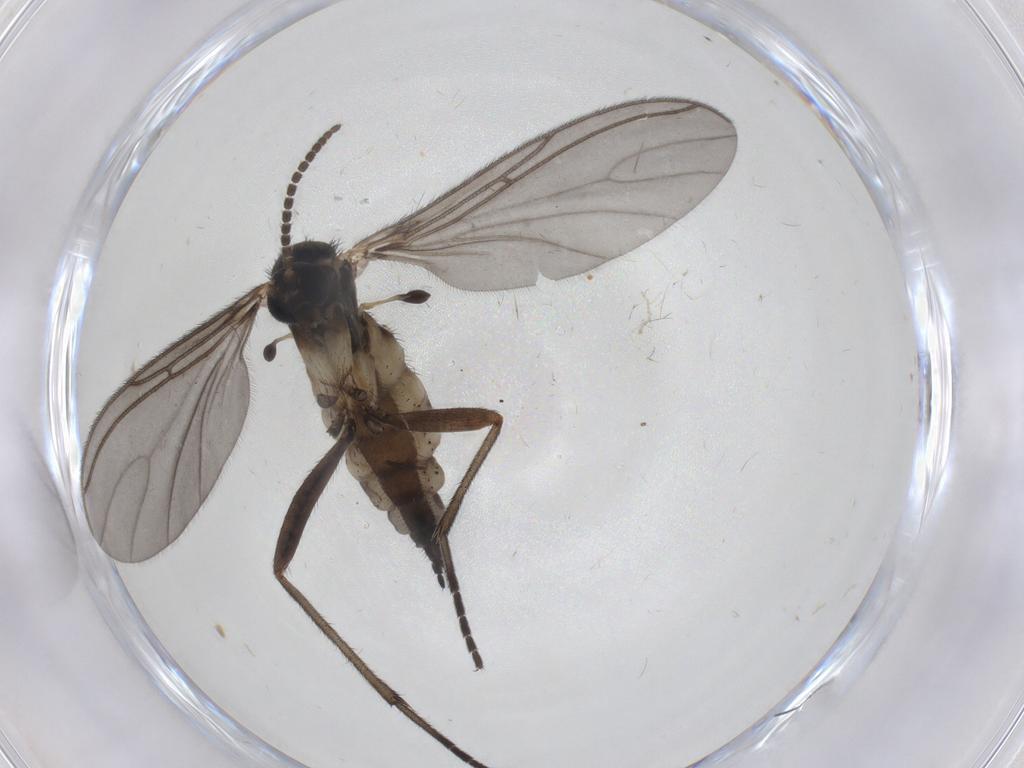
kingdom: Animalia
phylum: Arthropoda
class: Insecta
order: Diptera
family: Sciaridae
